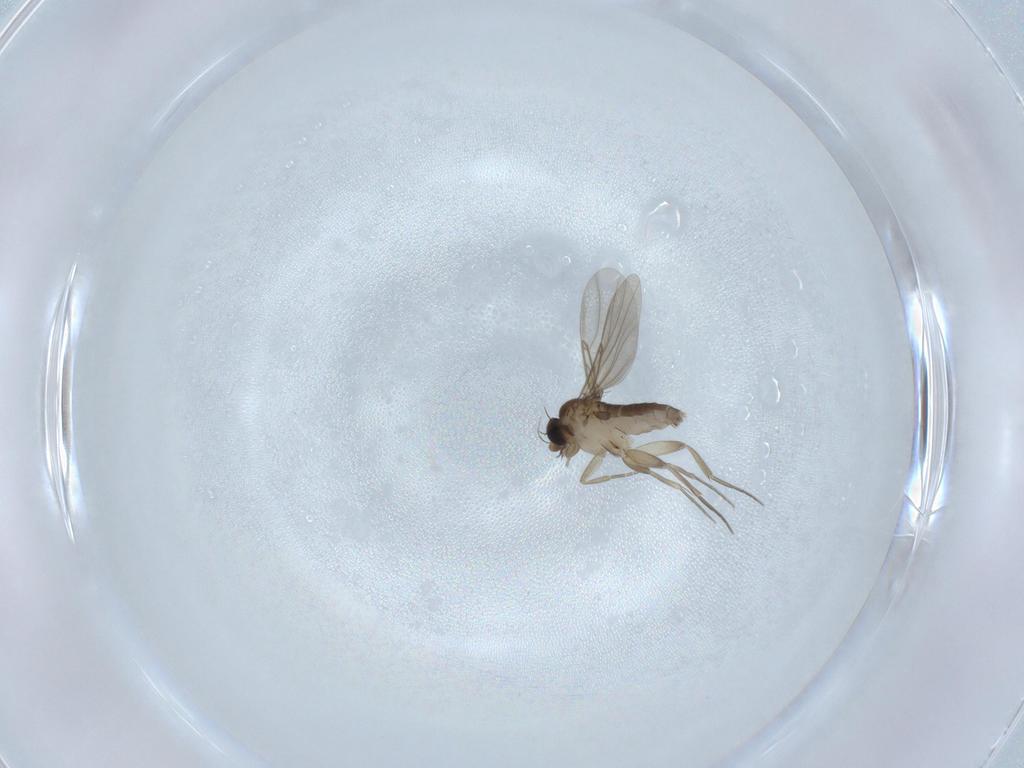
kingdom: Animalia
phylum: Arthropoda
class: Insecta
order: Diptera
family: Phoridae
